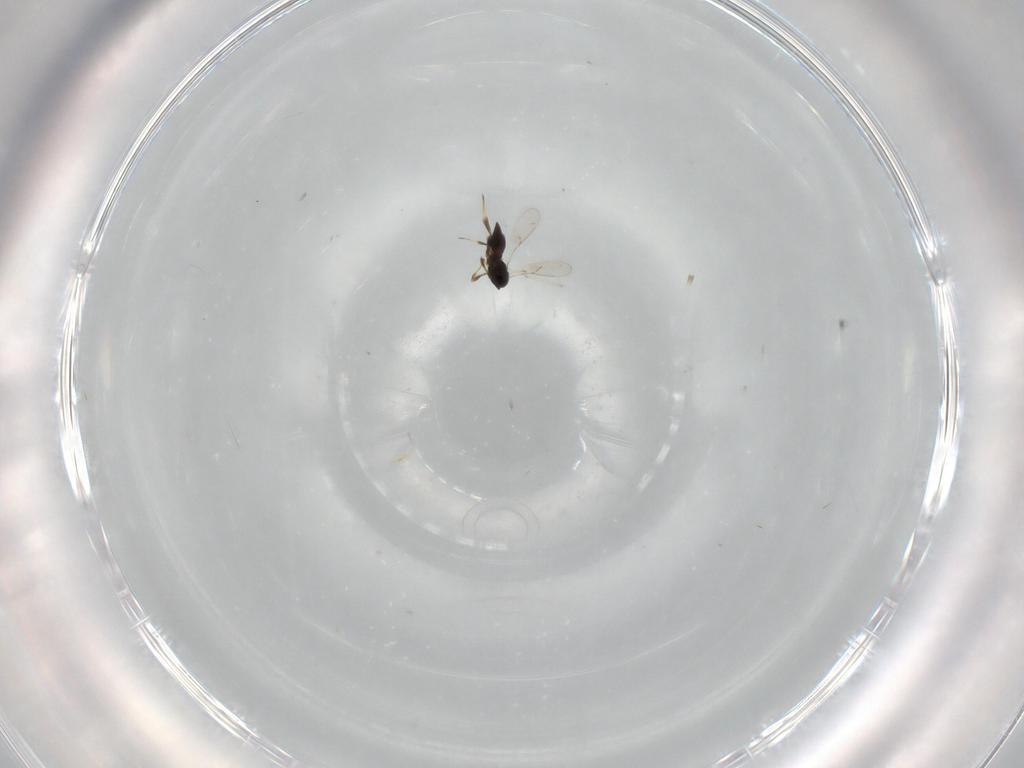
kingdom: Animalia
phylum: Arthropoda
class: Insecta
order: Hymenoptera
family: Scelionidae
